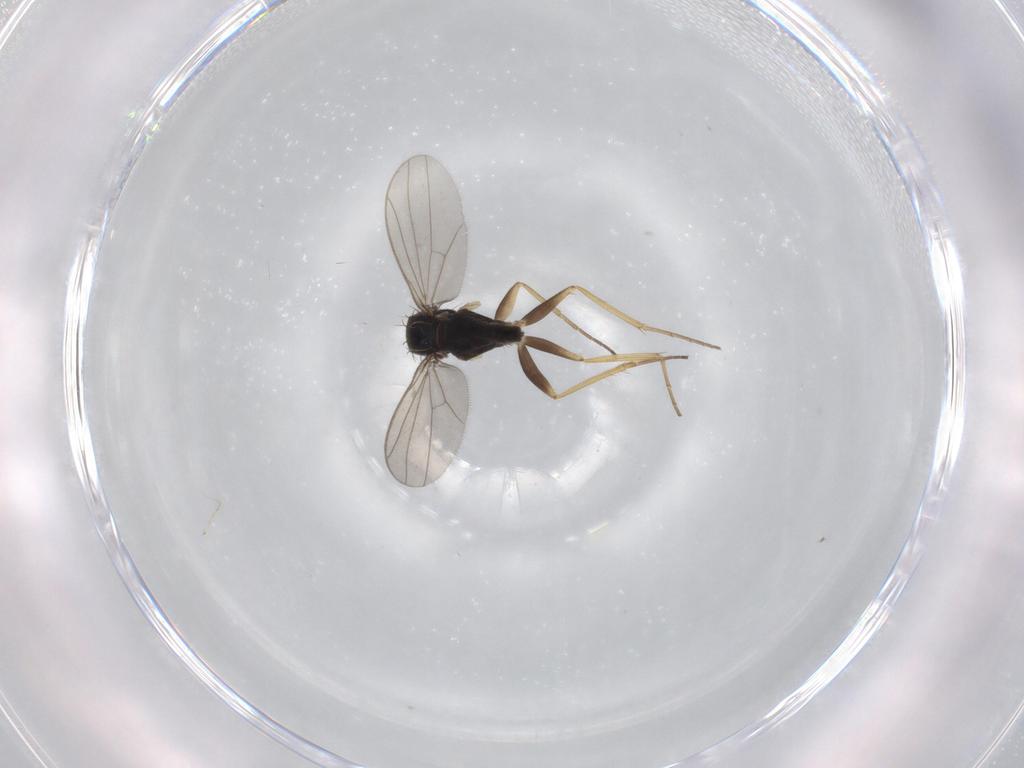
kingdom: Animalia
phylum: Arthropoda
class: Insecta
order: Diptera
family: Dolichopodidae
